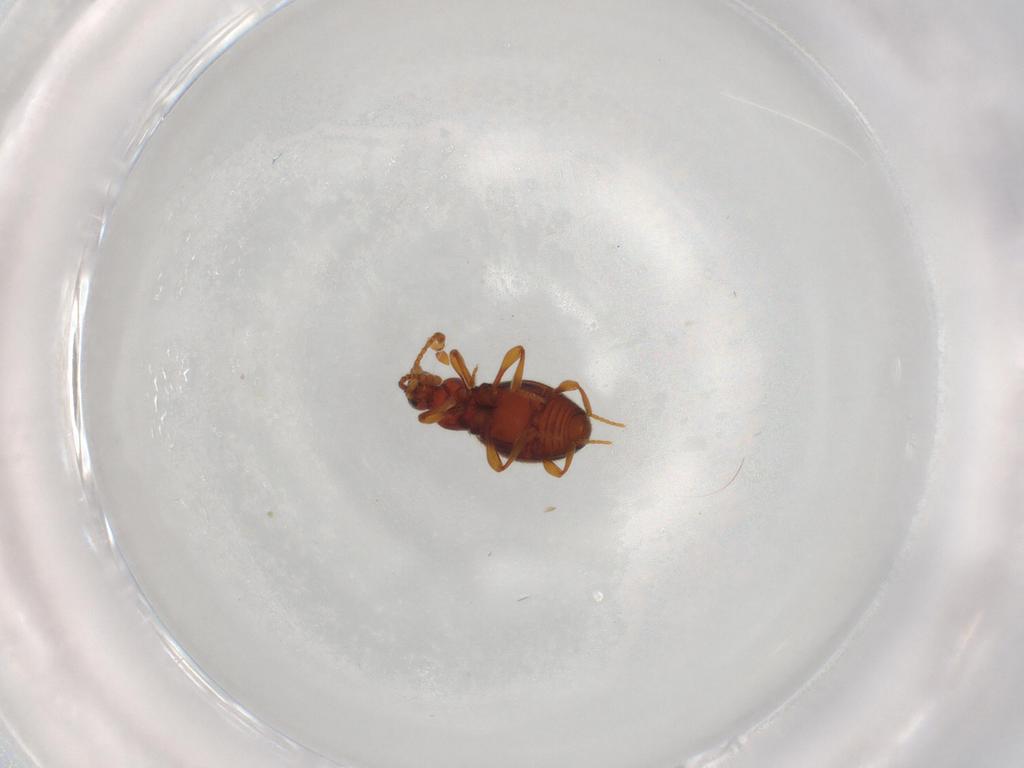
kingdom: Animalia
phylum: Arthropoda
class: Insecta
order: Coleoptera
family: Staphylinidae
